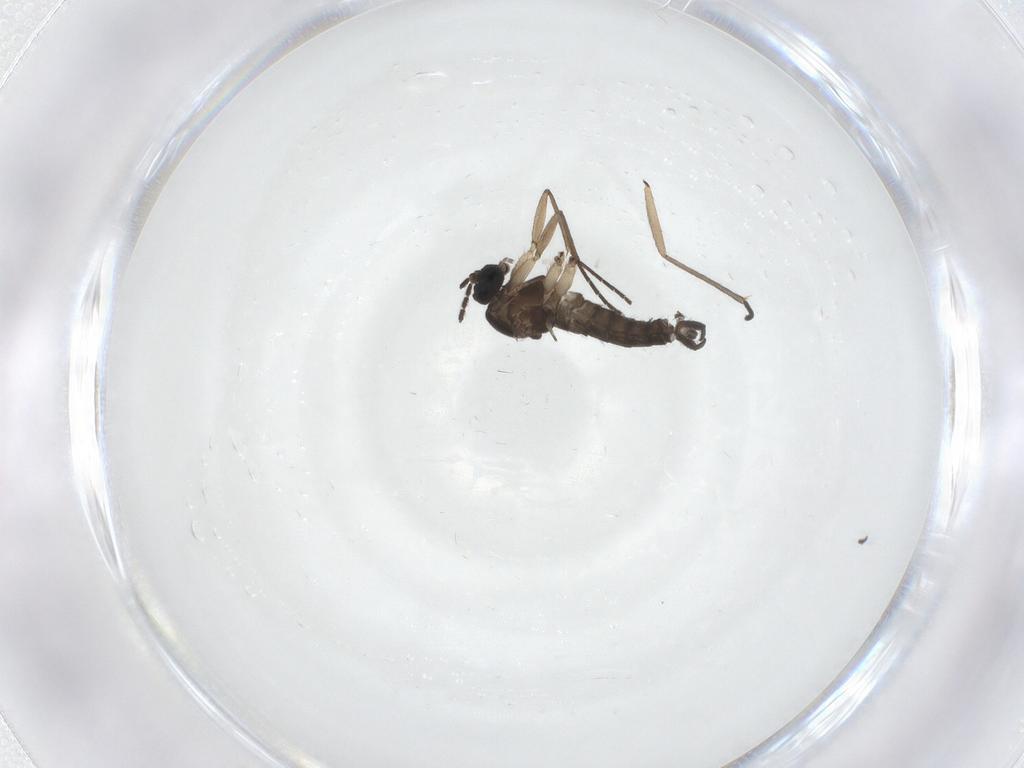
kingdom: Animalia
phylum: Arthropoda
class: Insecta
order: Diptera
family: Sciaridae
